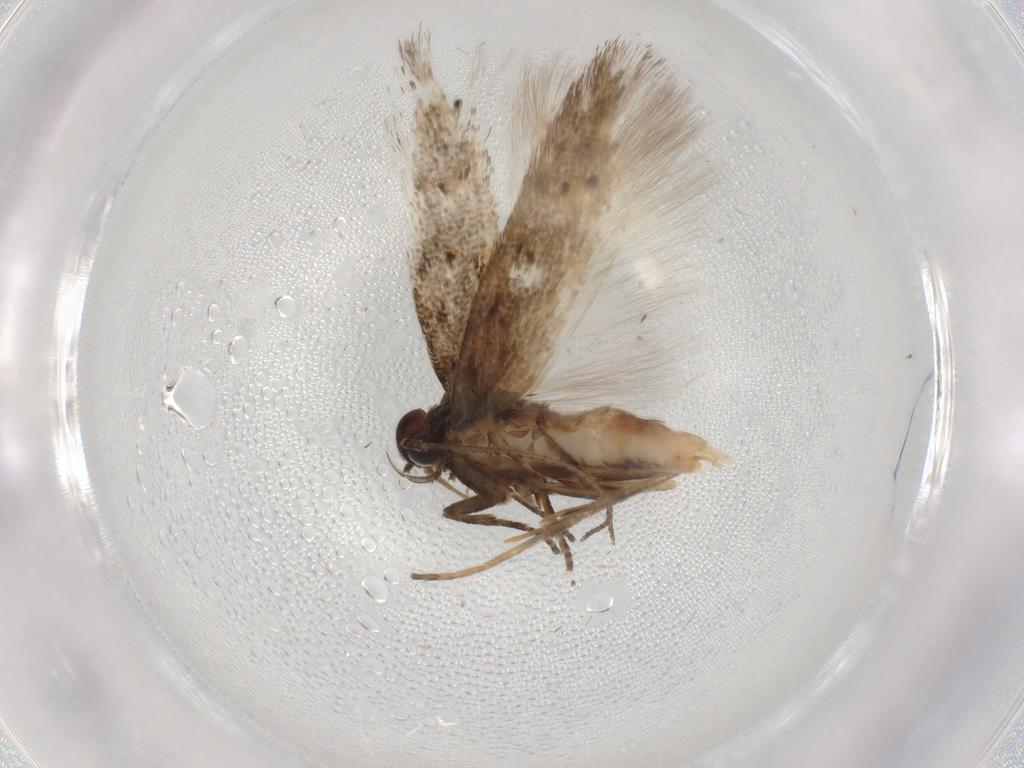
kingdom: Animalia
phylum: Arthropoda
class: Insecta
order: Lepidoptera
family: Gelechiidae
